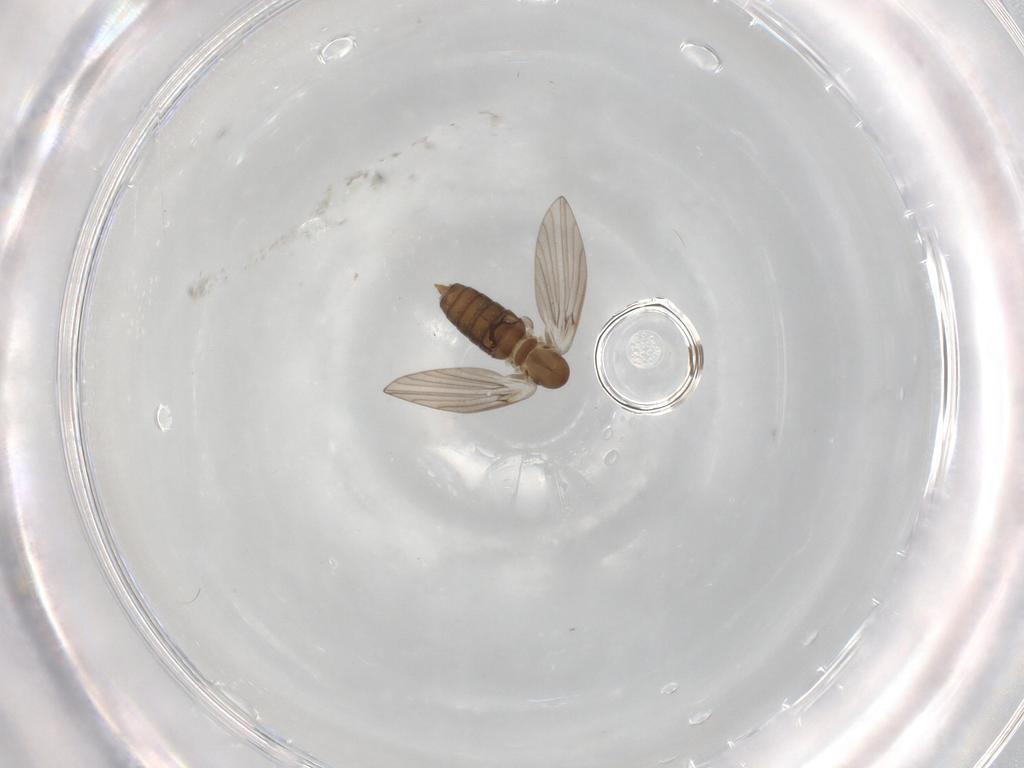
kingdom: Animalia
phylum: Arthropoda
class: Insecta
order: Diptera
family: Psychodidae
